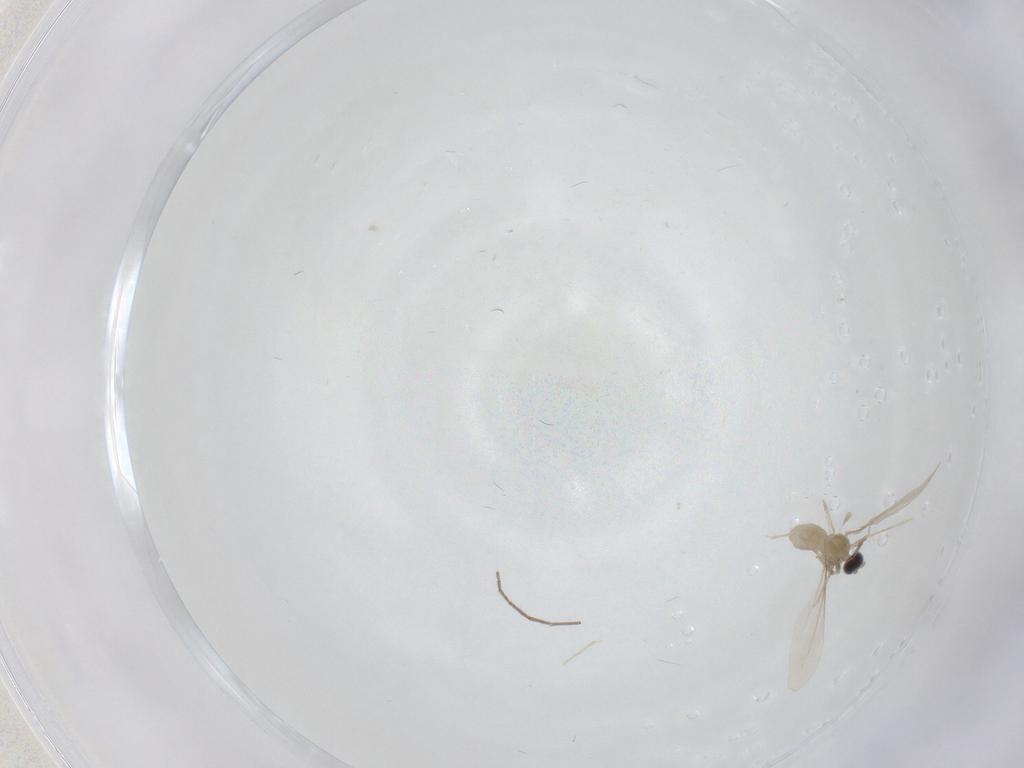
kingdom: Animalia
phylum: Arthropoda
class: Insecta
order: Diptera
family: Cecidomyiidae
